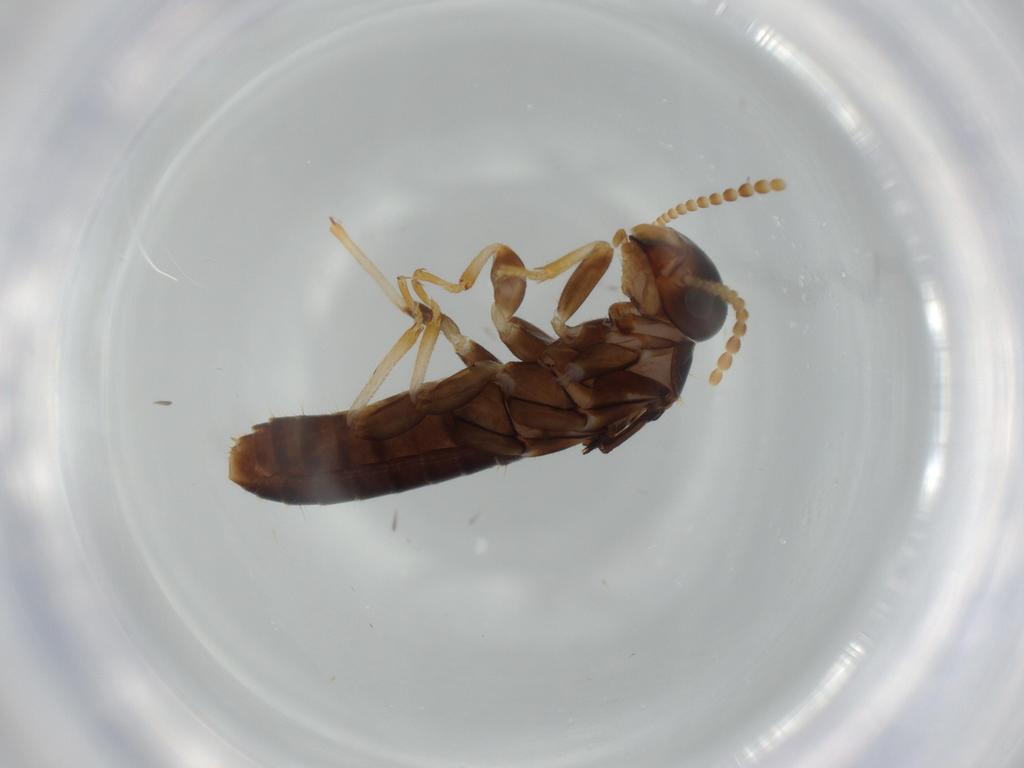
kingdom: Animalia
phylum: Arthropoda
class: Insecta
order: Blattodea
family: Kalotermitidae
